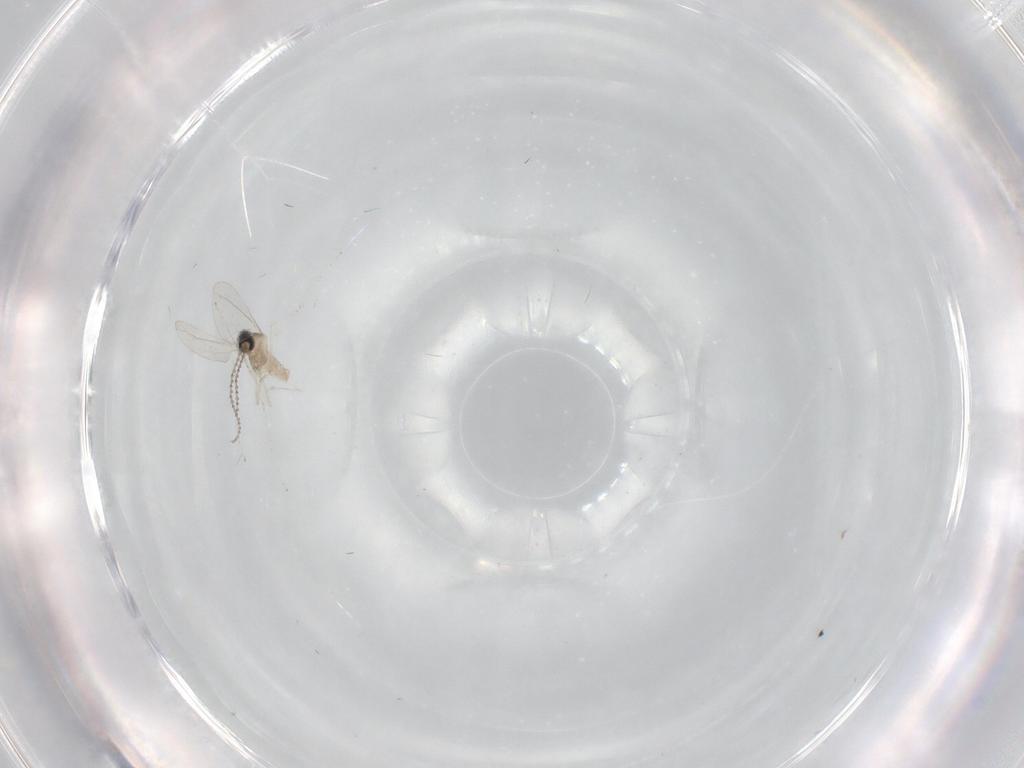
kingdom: Animalia
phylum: Arthropoda
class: Insecta
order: Diptera
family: Cecidomyiidae
